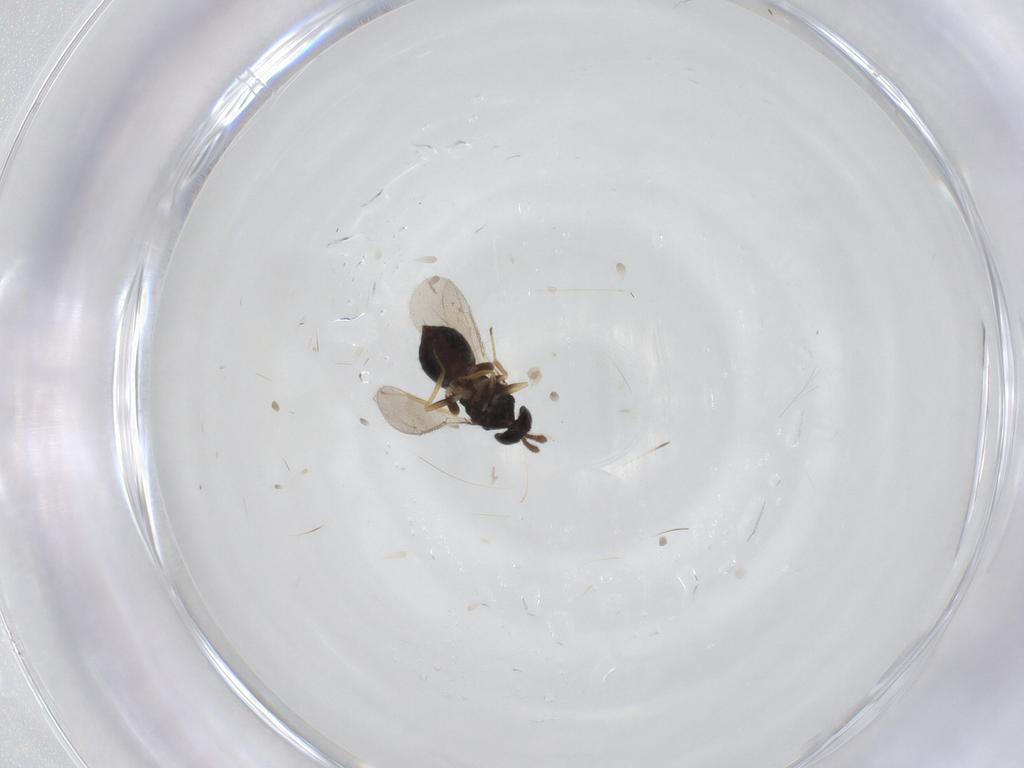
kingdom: Animalia
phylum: Arthropoda
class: Insecta
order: Hymenoptera
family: Eulophidae
